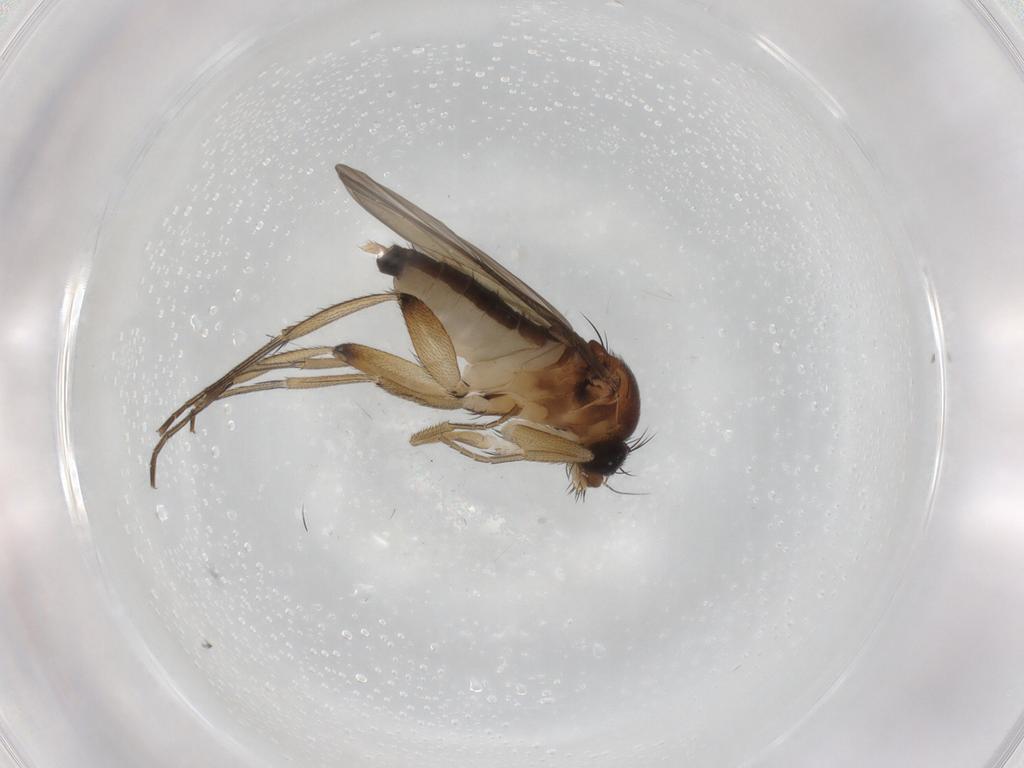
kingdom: Animalia
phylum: Arthropoda
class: Insecta
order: Diptera
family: Phoridae
